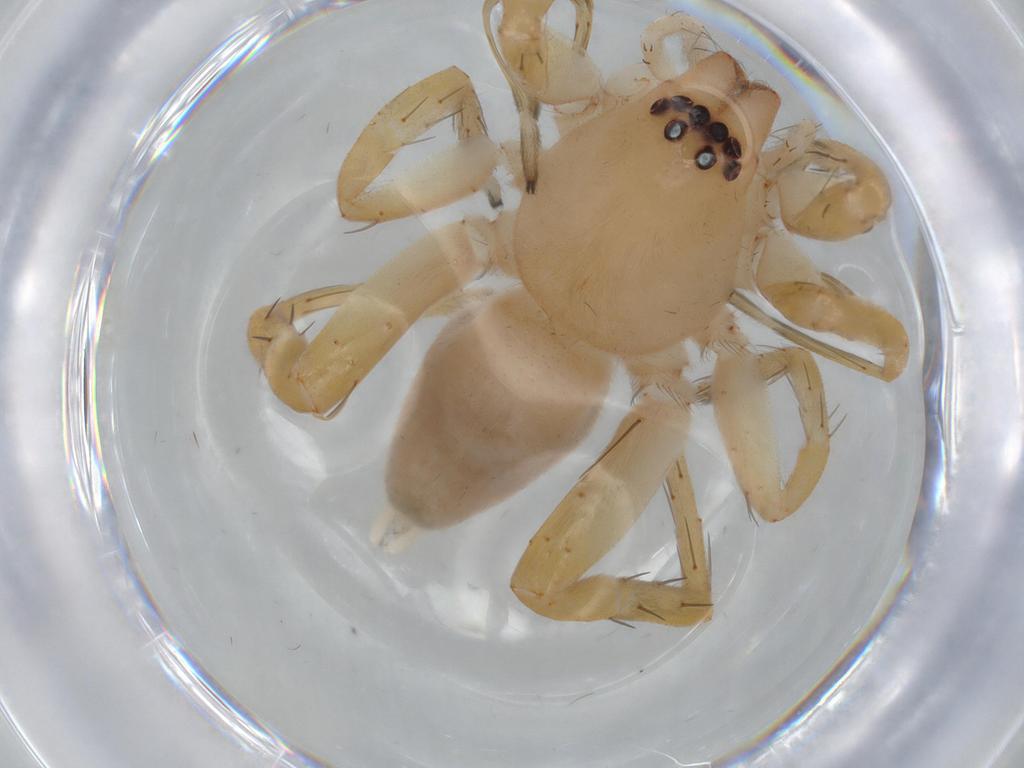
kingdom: Animalia
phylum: Arthropoda
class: Arachnida
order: Araneae
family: Clubionidae
